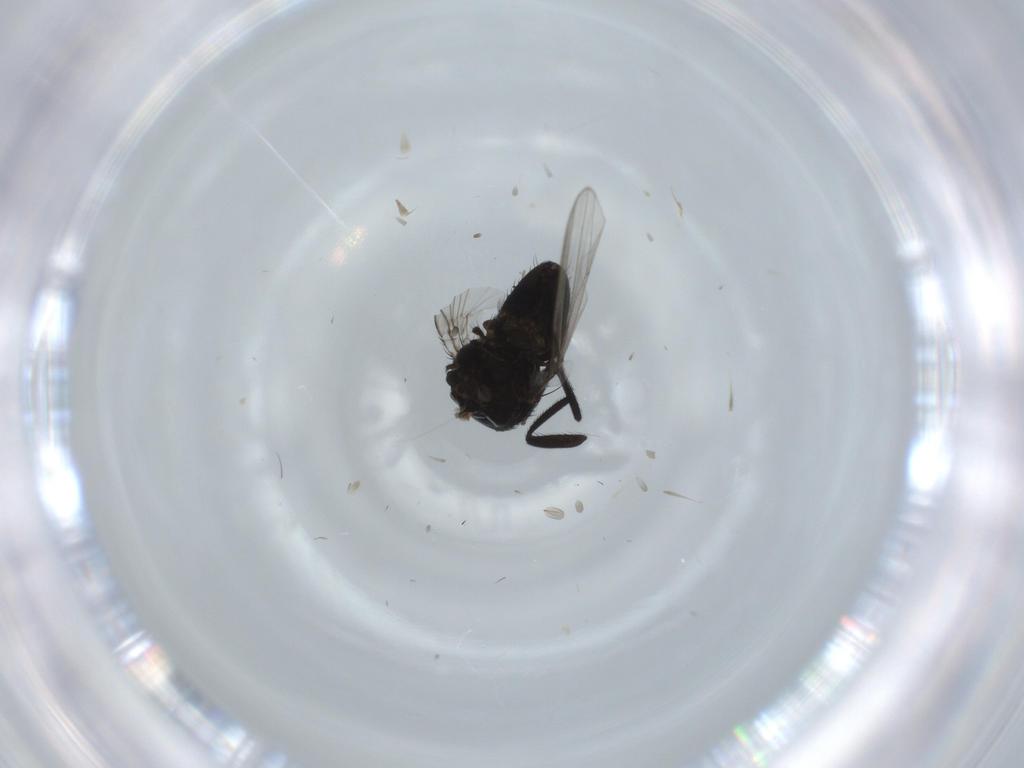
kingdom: Animalia
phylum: Arthropoda
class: Insecta
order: Diptera
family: Milichiidae
